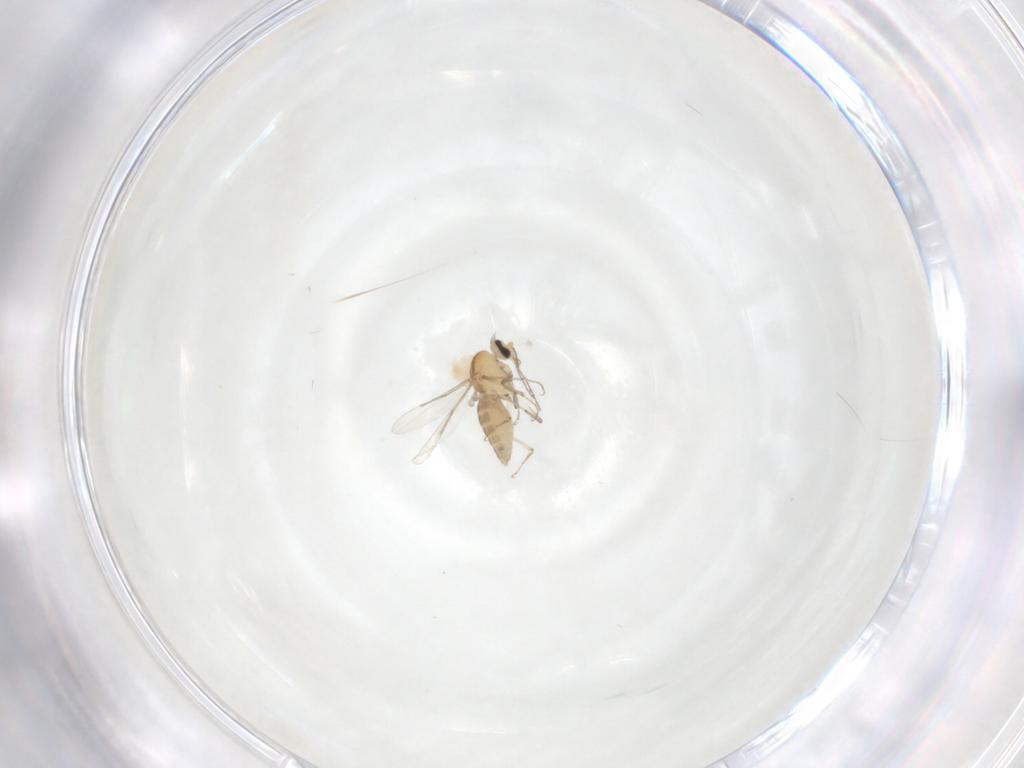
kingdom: Animalia
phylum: Arthropoda
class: Insecta
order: Diptera
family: Ceratopogonidae
